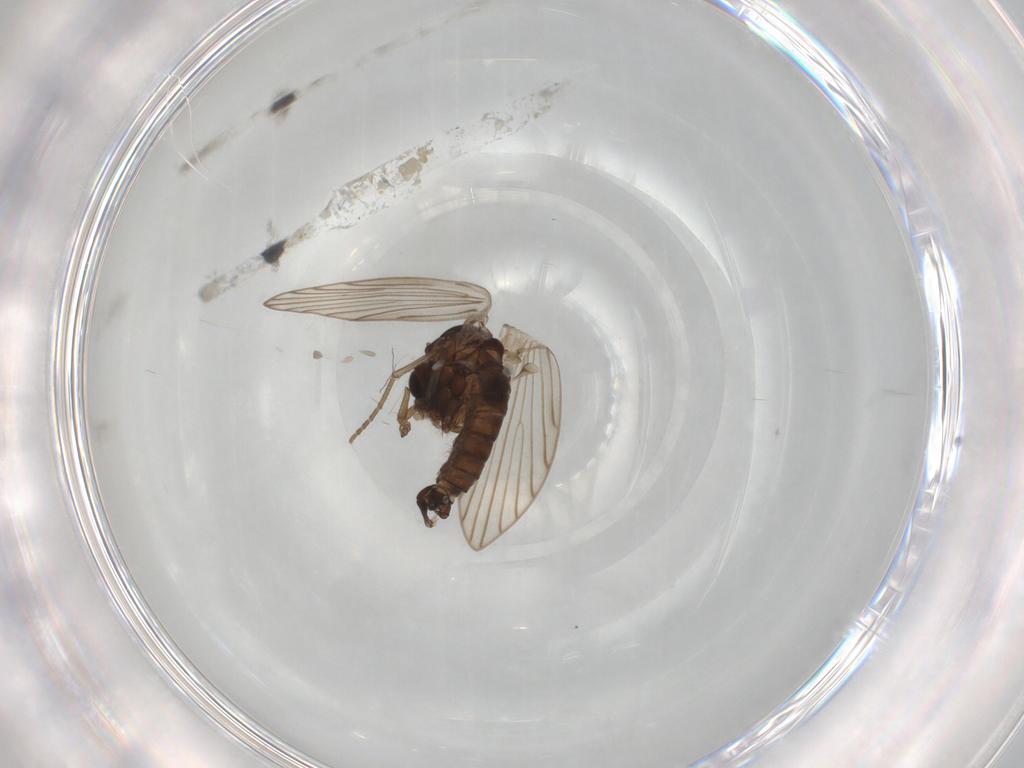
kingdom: Animalia
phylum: Arthropoda
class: Insecta
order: Diptera
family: Psychodidae
